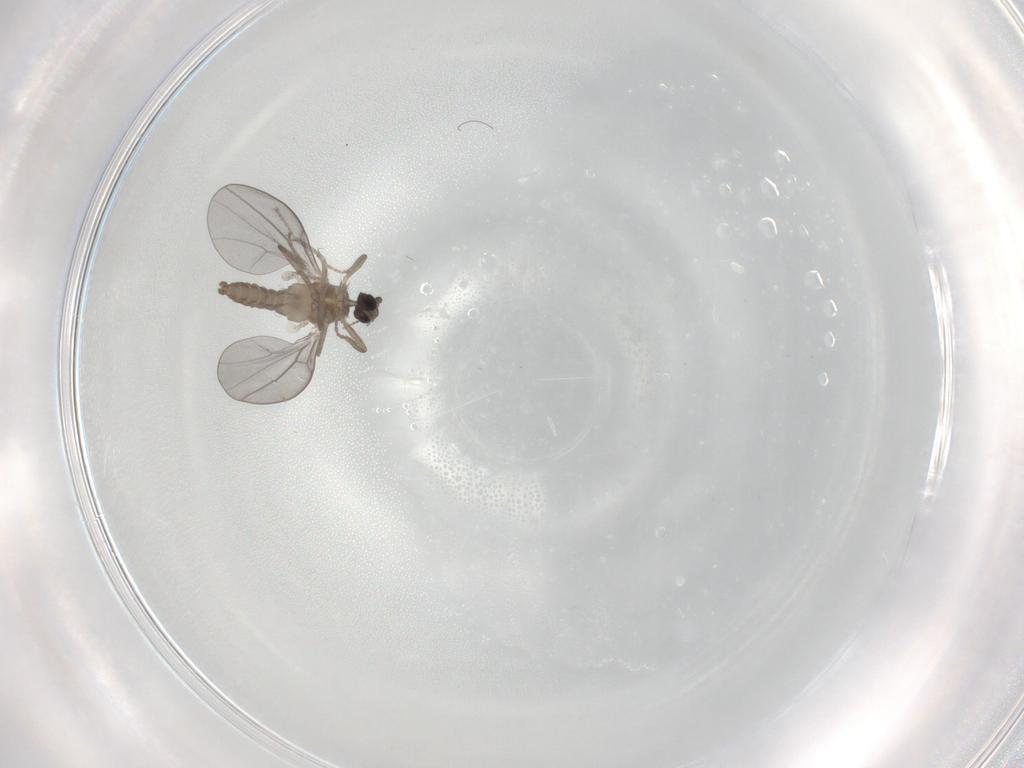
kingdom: Animalia
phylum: Arthropoda
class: Insecta
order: Diptera
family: Cecidomyiidae
